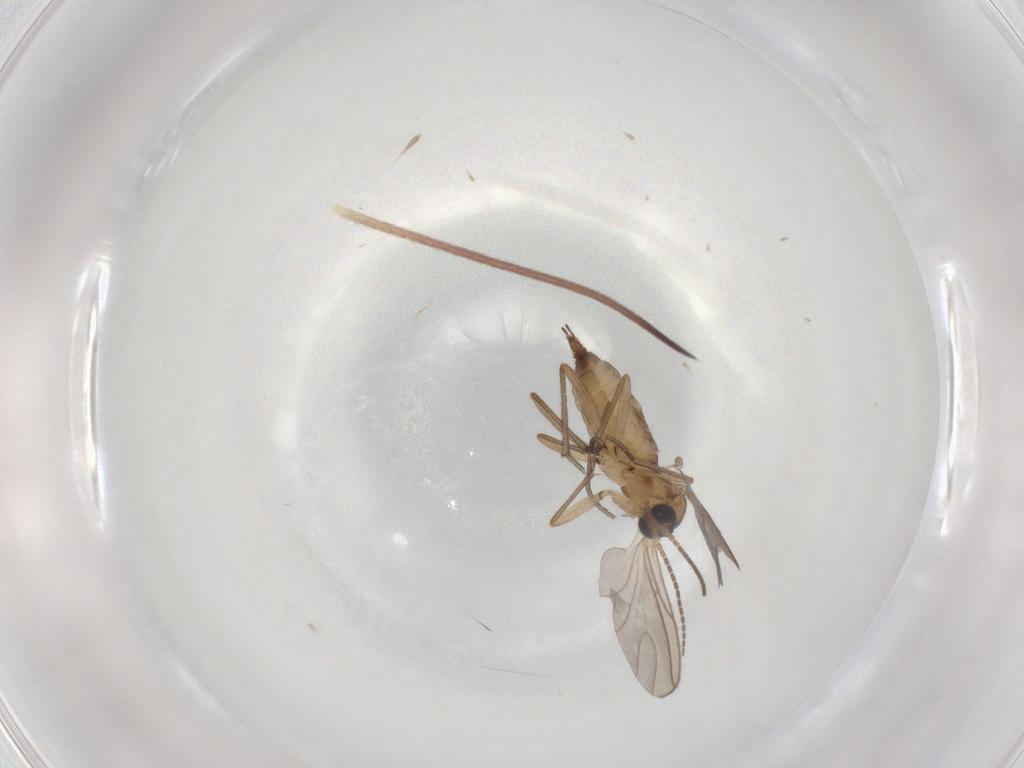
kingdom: Animalia
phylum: Arthropoda
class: Insecta
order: Diptera
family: Sciaridae
